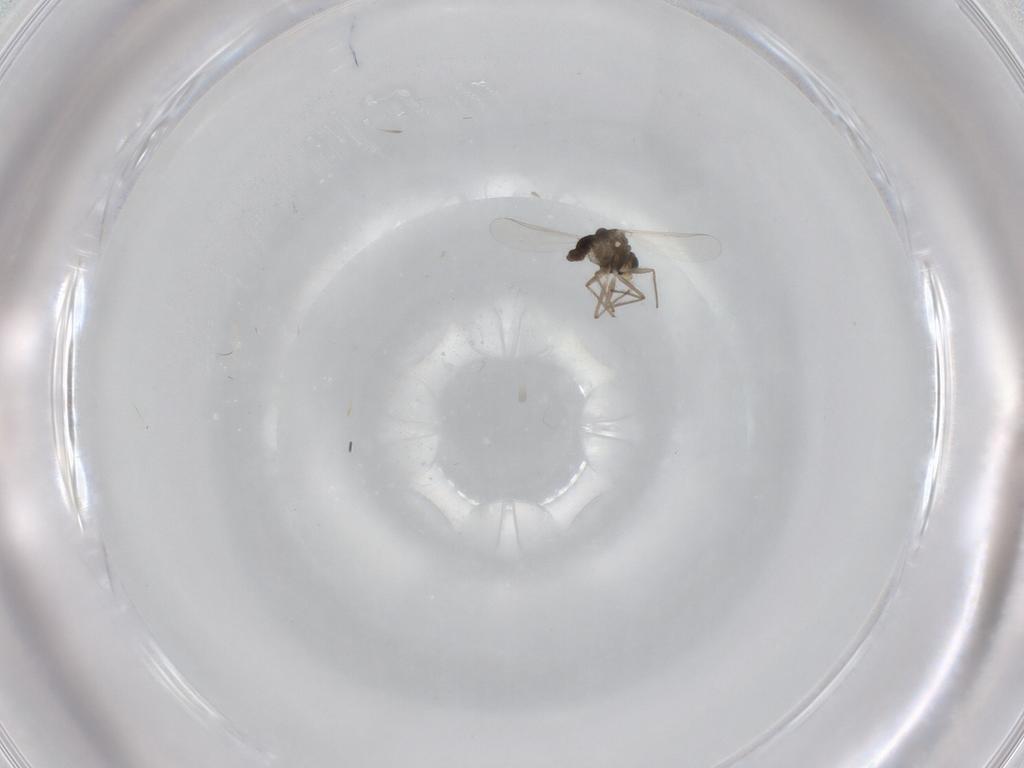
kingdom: Animalia
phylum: Arthropoda
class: Insecta
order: Diptera
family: Chironomidae
